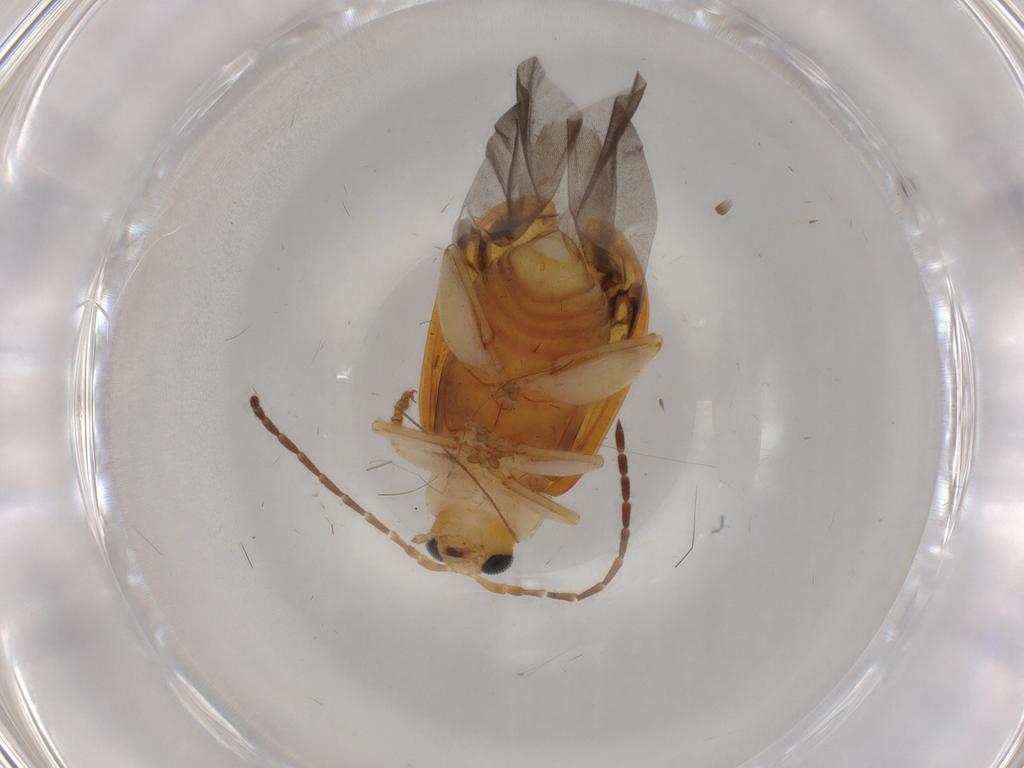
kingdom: Animalia
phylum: Arthropoda
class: Insecta
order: Coleoptera
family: Chrysomelidae
